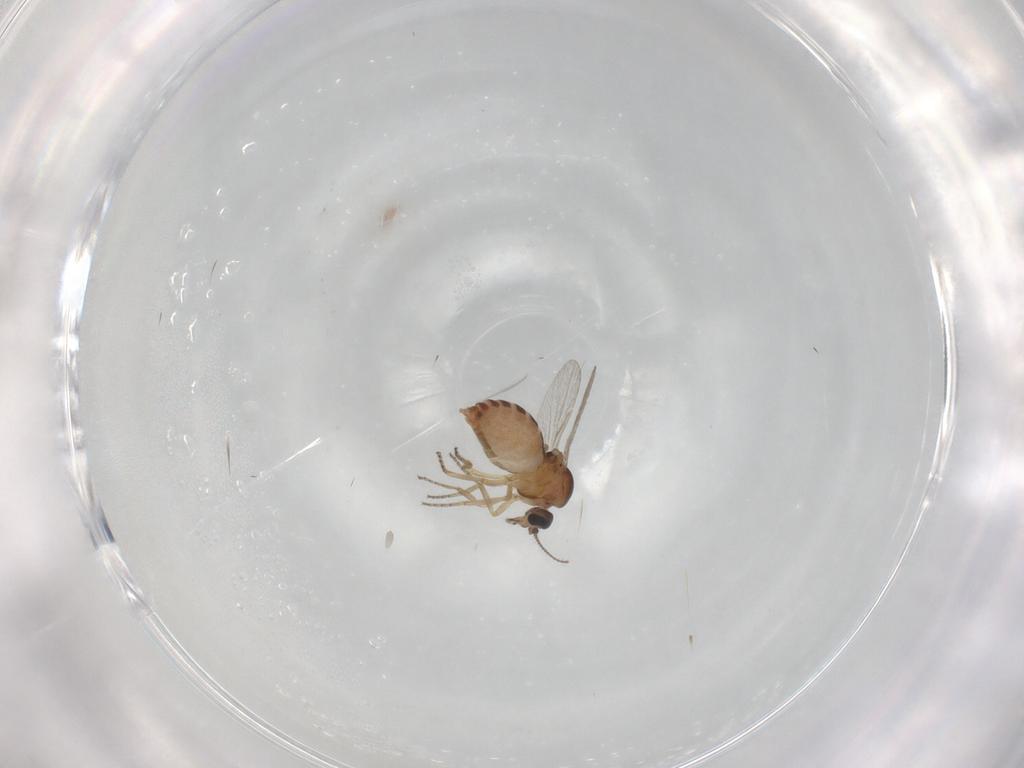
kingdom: Animalia
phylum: Arthropoda
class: Insecta
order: Diptera
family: Ceratopogonidae
